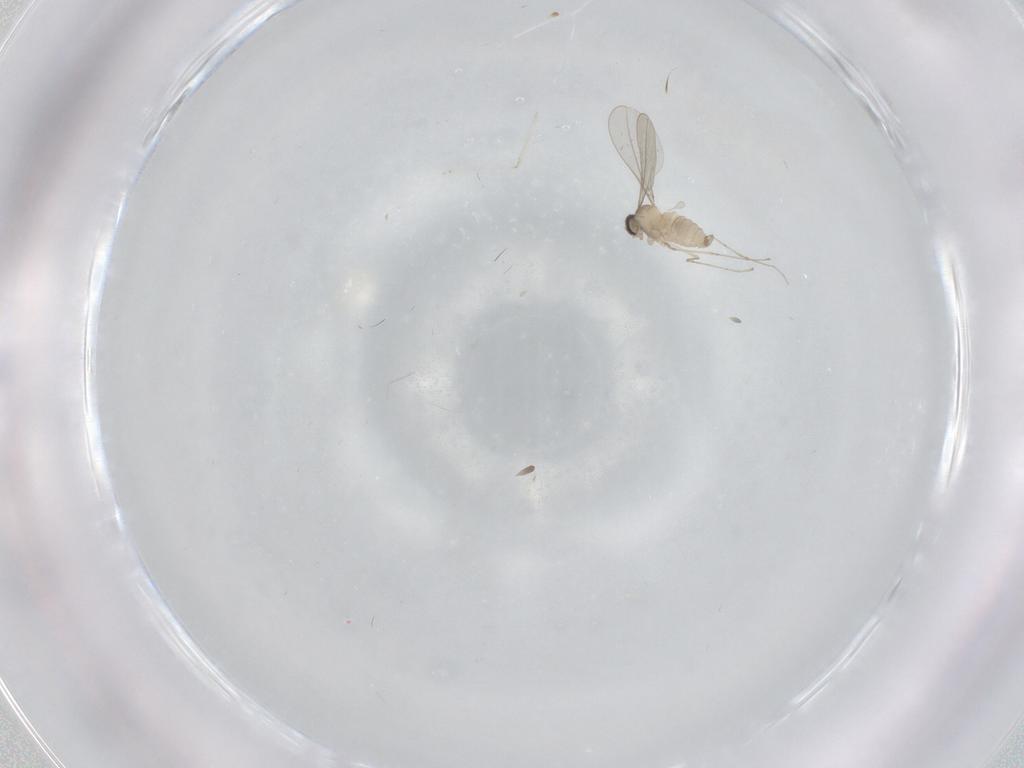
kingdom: Animalia
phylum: Arthropoda
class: Insecta
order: Diptera
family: Cecidomyiidae
